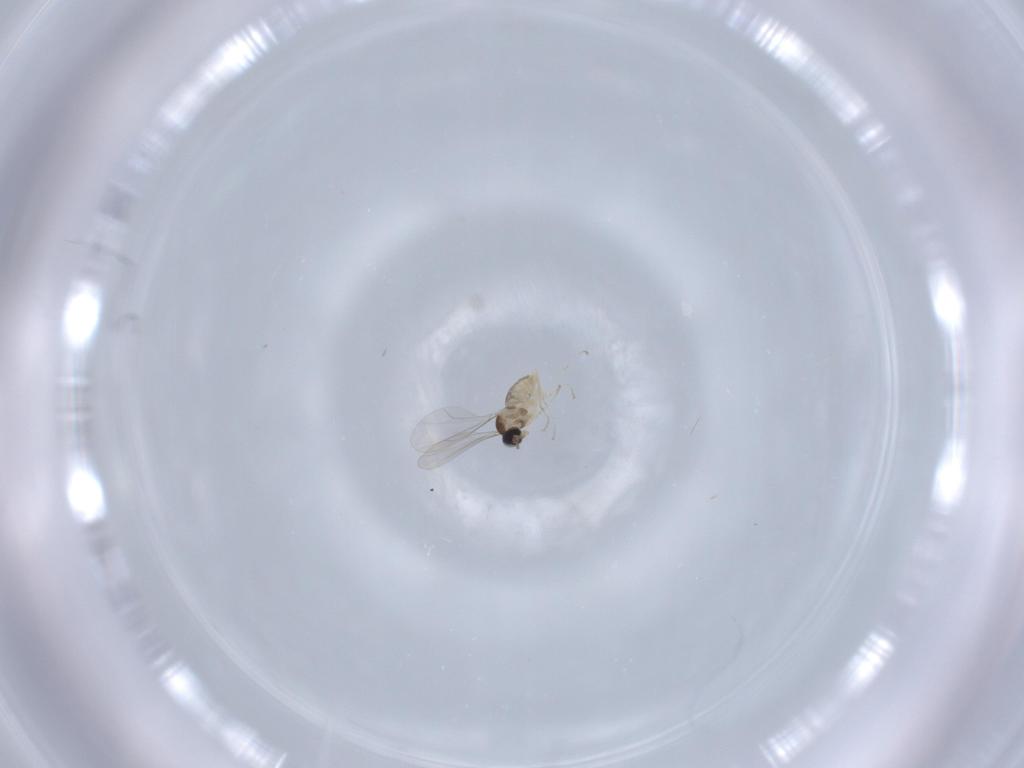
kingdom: Animalia
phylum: Arthropoda
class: Insecta
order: Diptera
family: Cecidomyiidae
